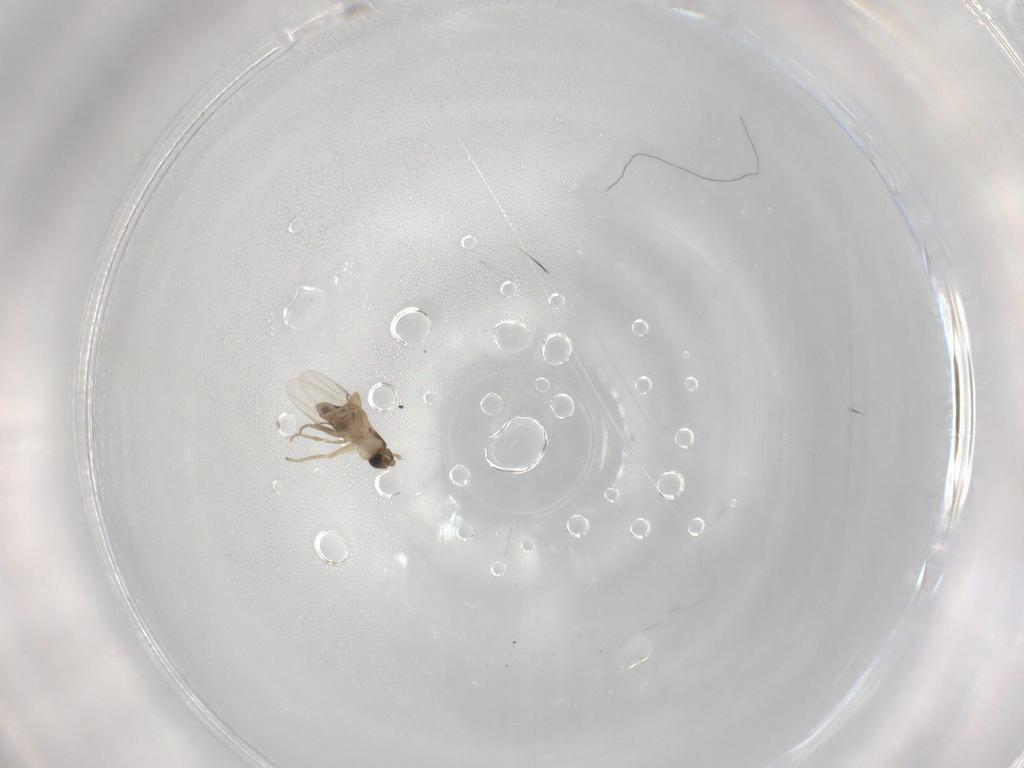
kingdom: Animalia
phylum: Arthropoda
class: Insecta
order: Diptera
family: Phoridae
